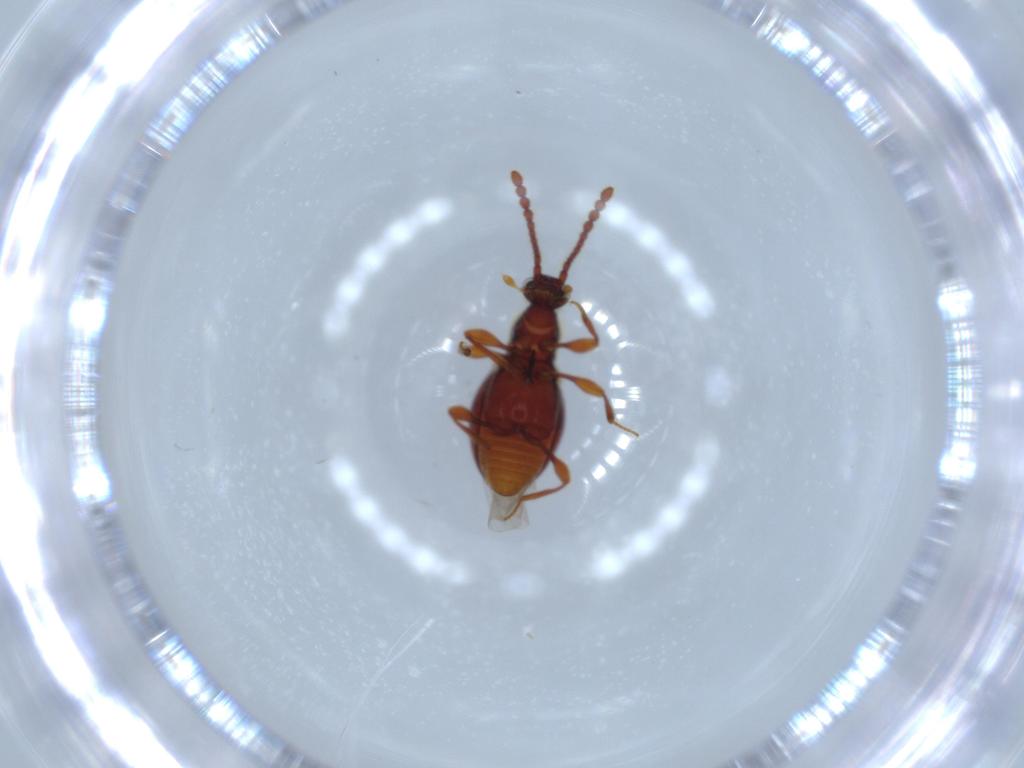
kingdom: Animalia
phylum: Arthropoda
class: Insecta
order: Coleoptera
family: Staphylinidae
